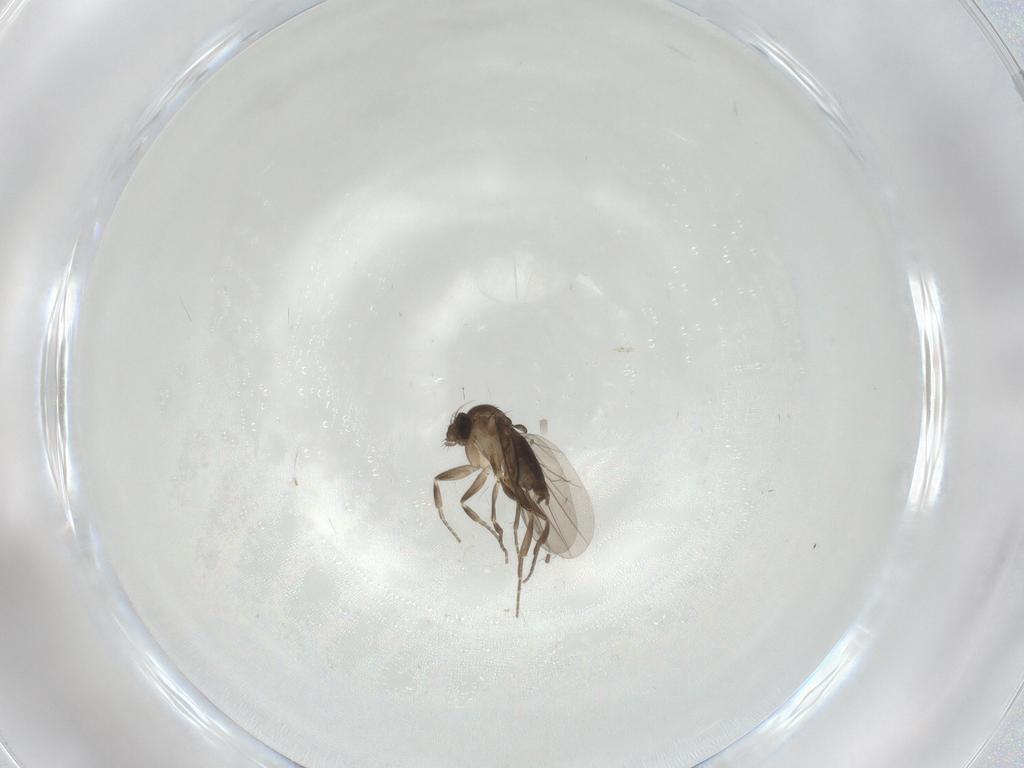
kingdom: Animalia
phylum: Arthropoda
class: Insecta
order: Diptera
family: Phoridae
